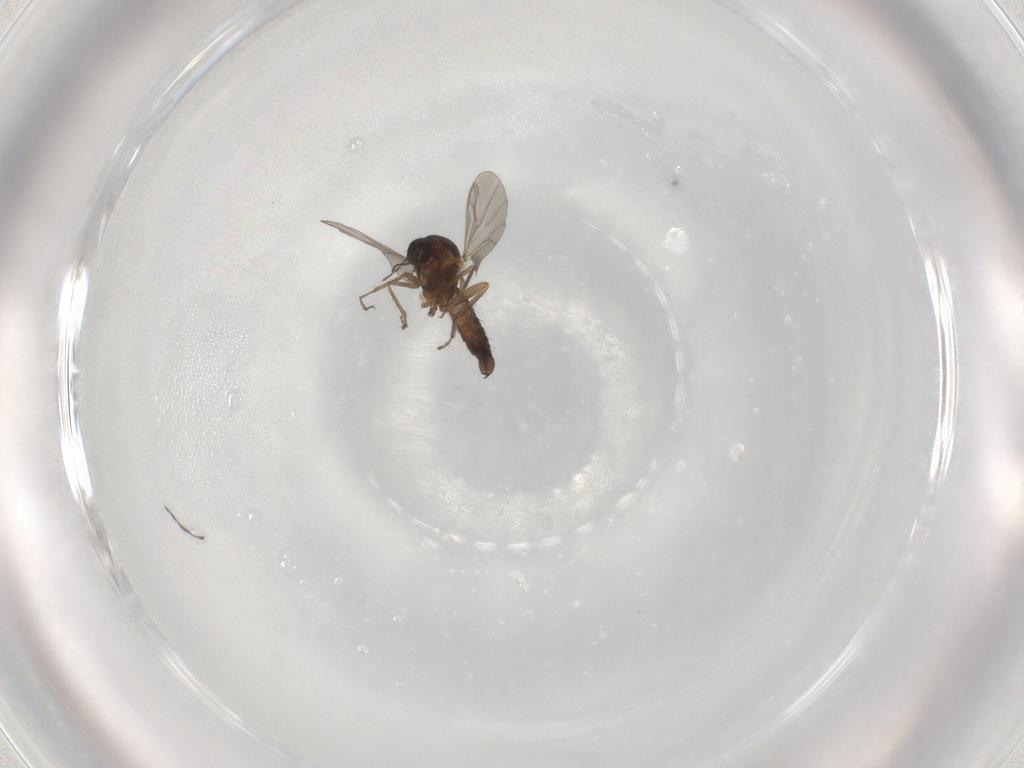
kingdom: Animalia
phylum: Arthropoda
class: Insecta
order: Diptera
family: Ceratopogonidae
